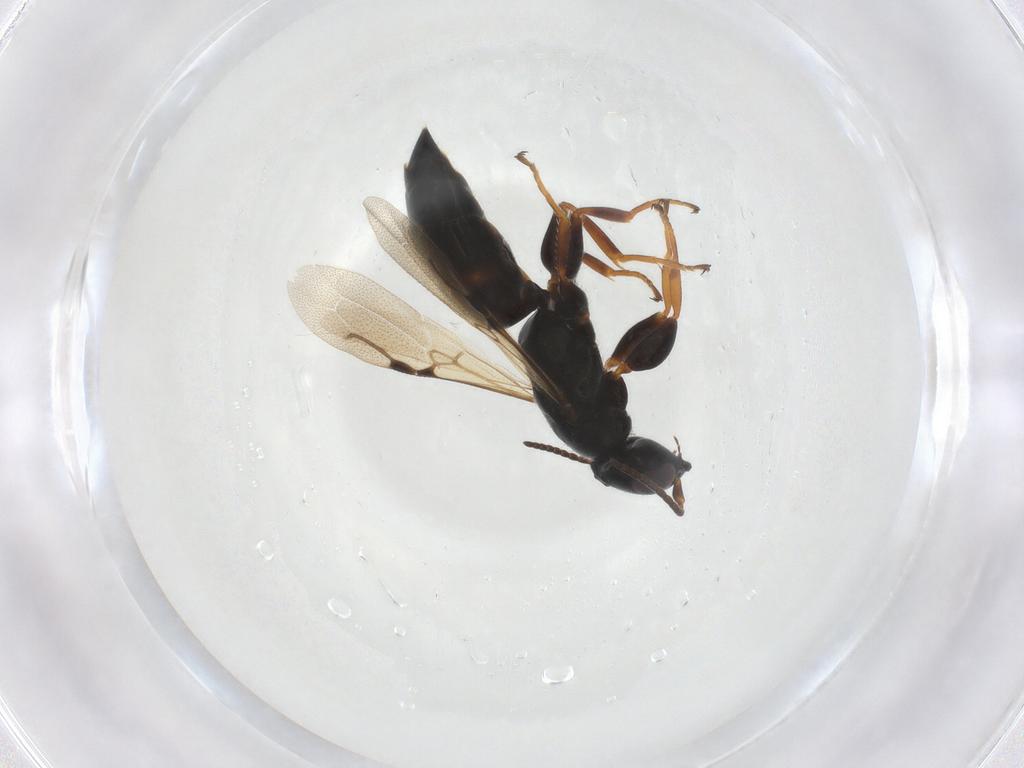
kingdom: Animalia
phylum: Arthropoda
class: Insecta
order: Hymenoptera
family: Bethylidae
